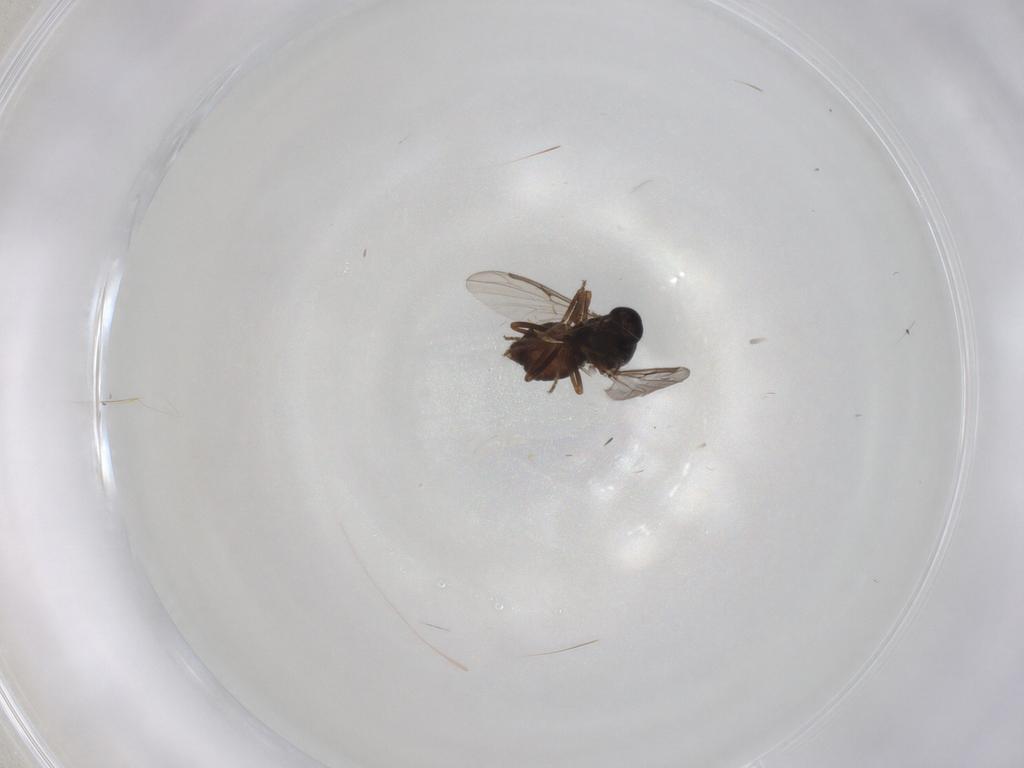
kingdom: Animalia
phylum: Arthropoda
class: Insecta
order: Diptera
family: Ceratopogonidae
